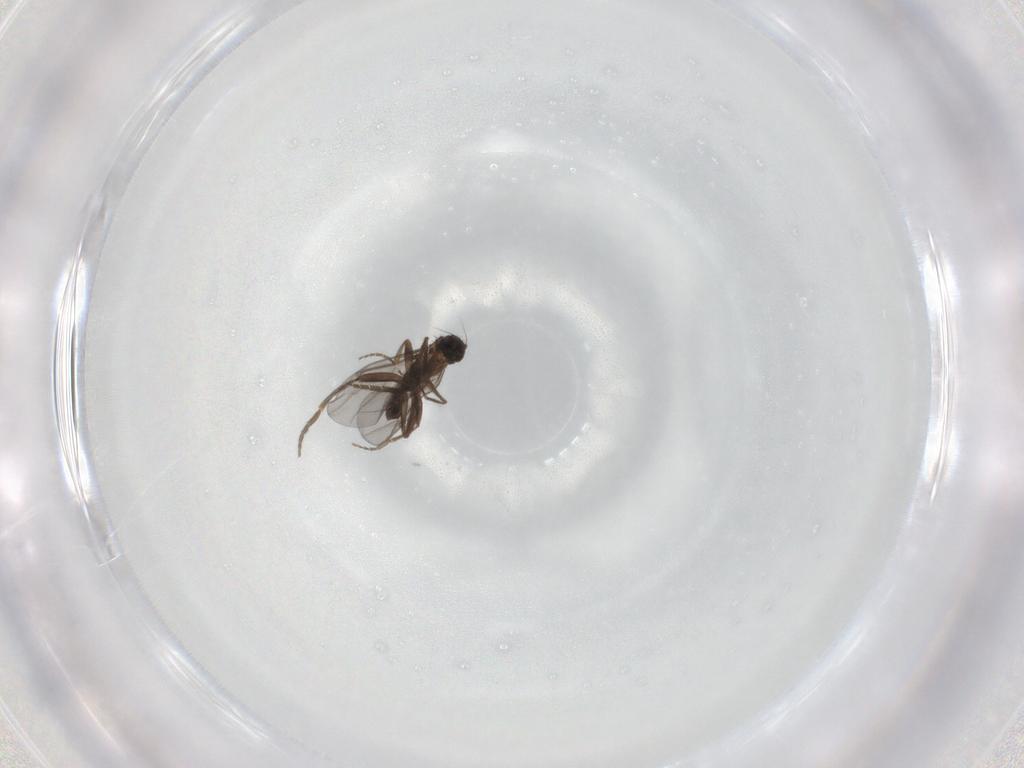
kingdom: Animalia
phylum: Arthropoda
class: Insecta
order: Diptera
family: Phoridae
